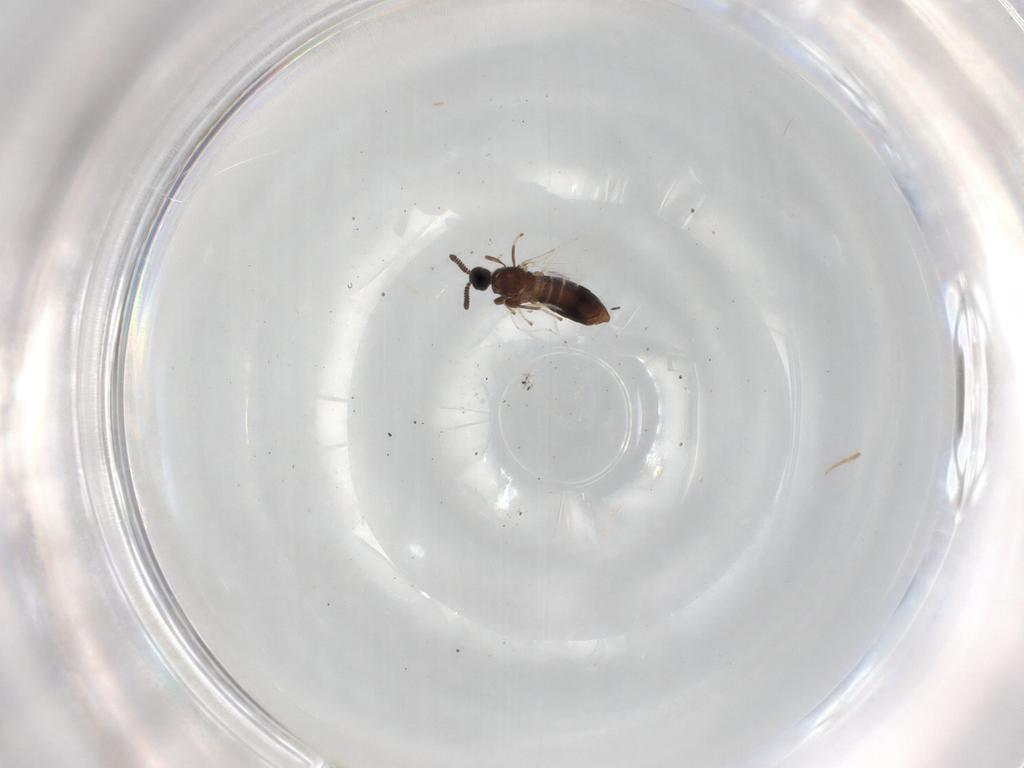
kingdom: Animalia
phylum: Arthropoda
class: Insecta
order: Diptera
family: Scatopsidae
